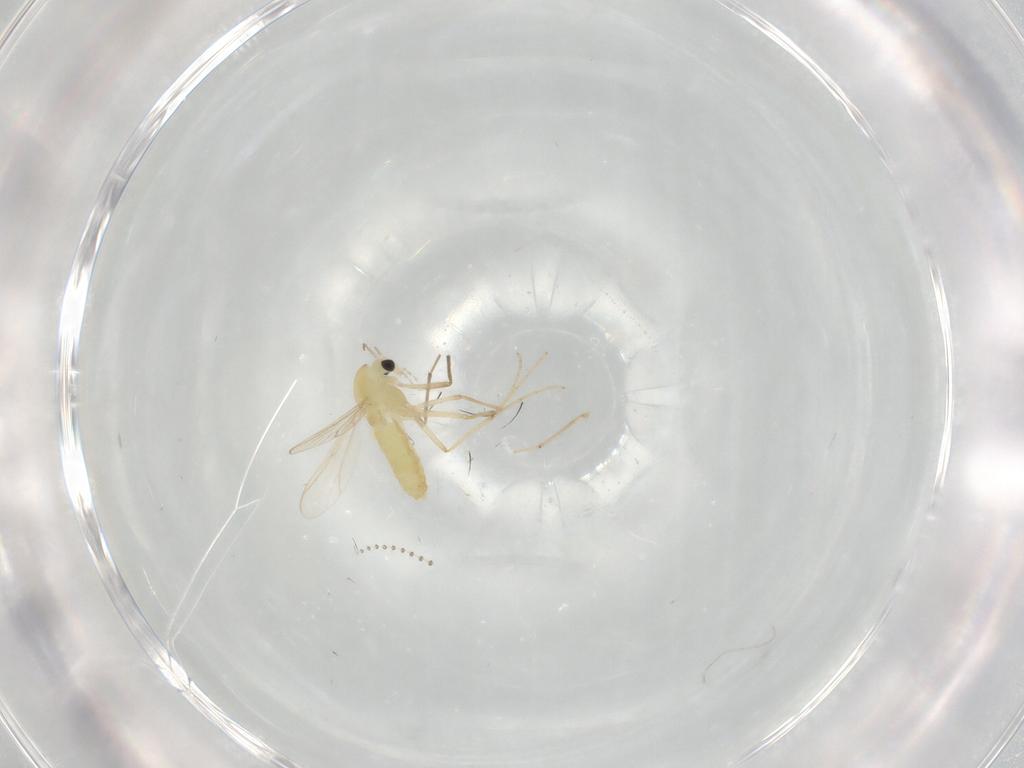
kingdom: Animalia
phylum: Arthropoda
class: Insecta
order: Diptera
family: Chironomidae
